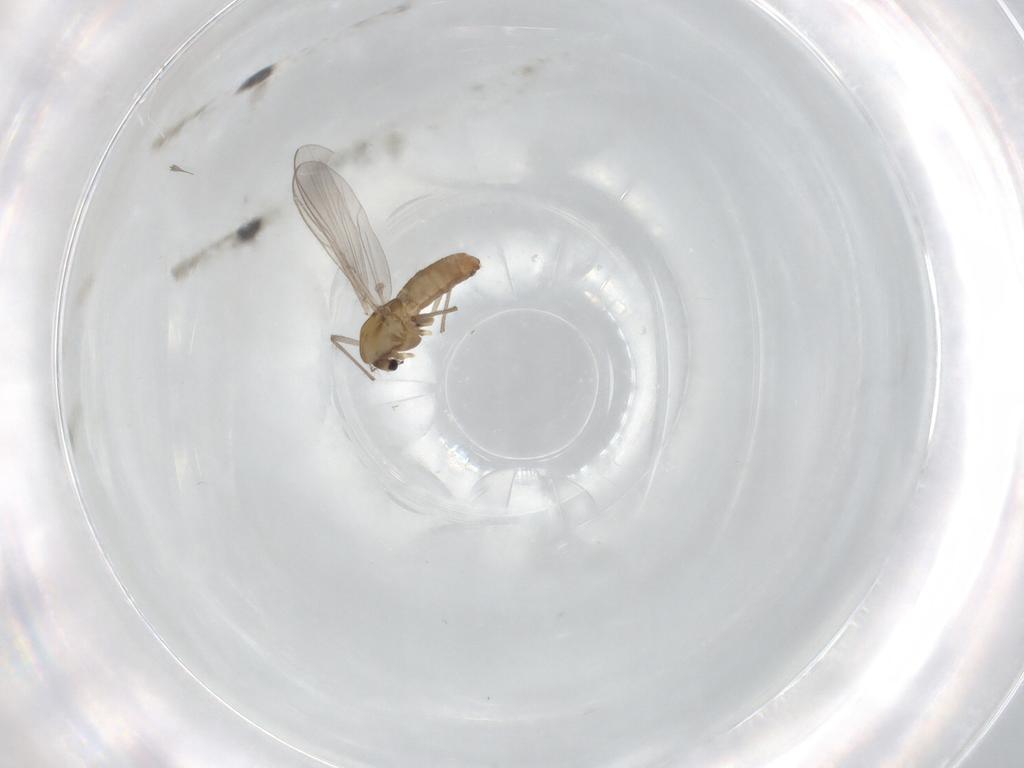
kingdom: Animalia
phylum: Arthropoda
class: Insecta
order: Diptera
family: Chironomidae
